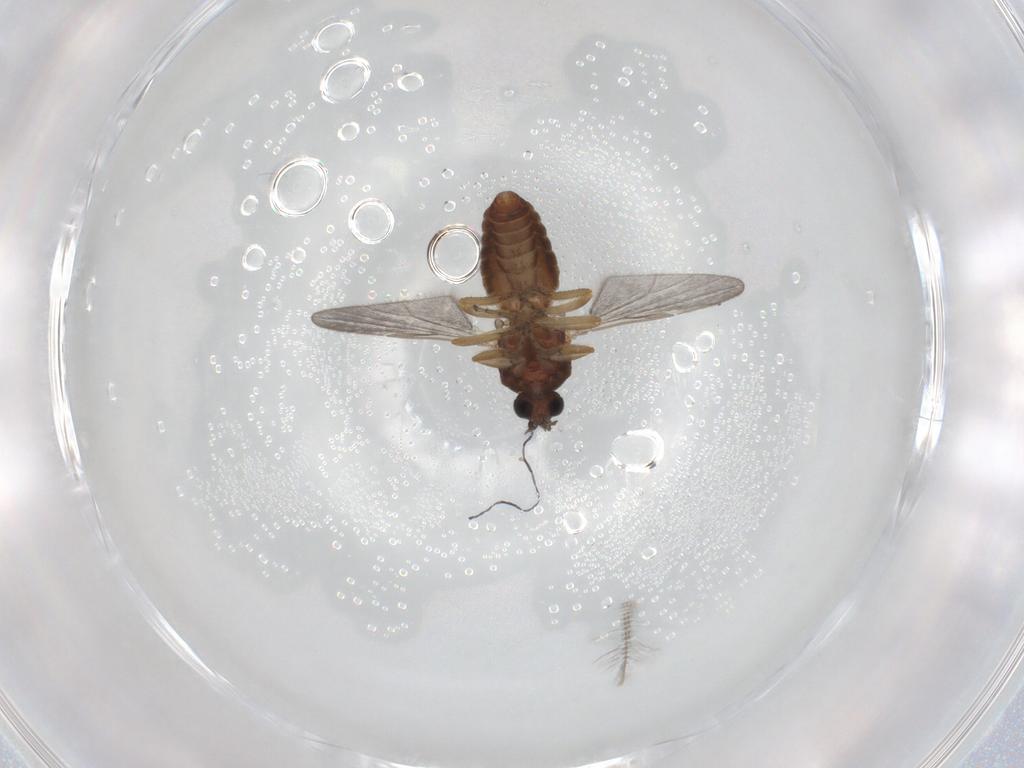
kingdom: Animalia
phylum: Arthropoda
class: Insecta
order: Diptera
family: Ceratopogonidae
